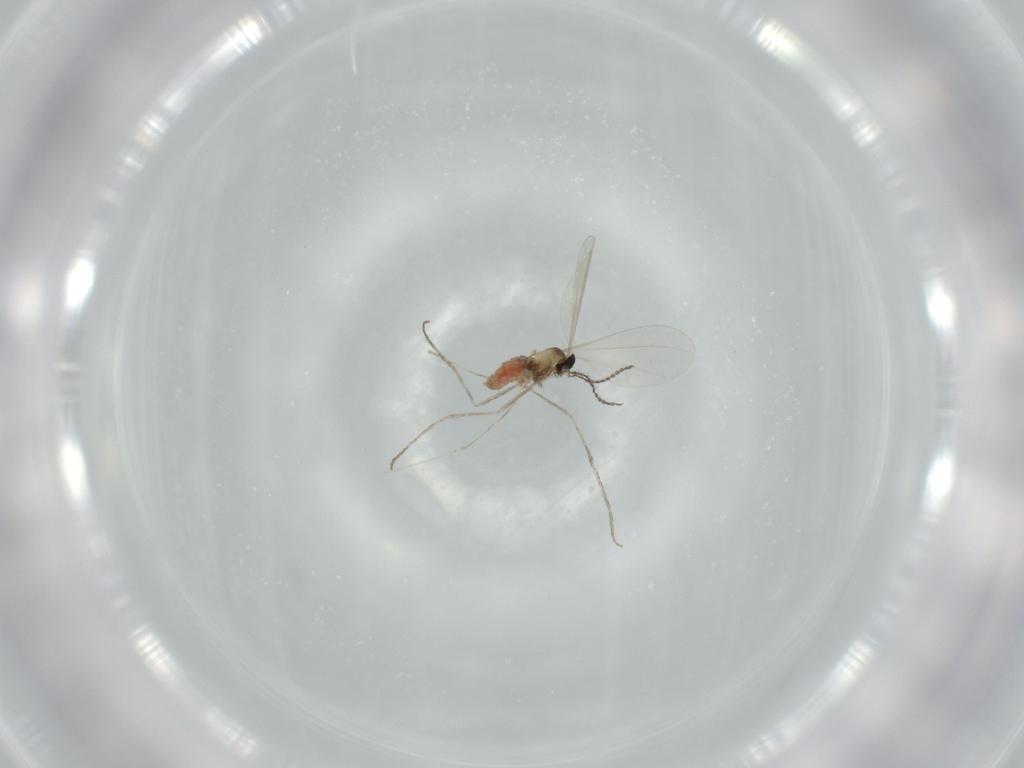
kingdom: Animalia
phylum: Arthropoda
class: Insecta
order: Diptera
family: Cecidomyiidae
